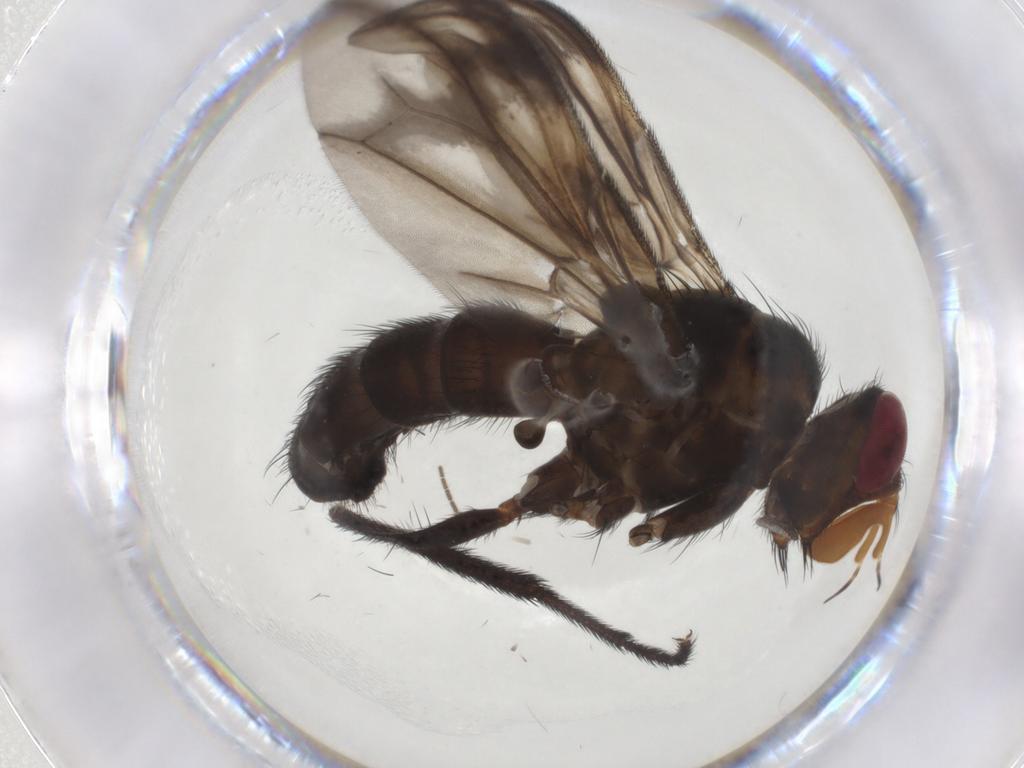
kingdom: Animalia
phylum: Arthropoda
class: Insecta
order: Diptera
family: Calliphoridae
